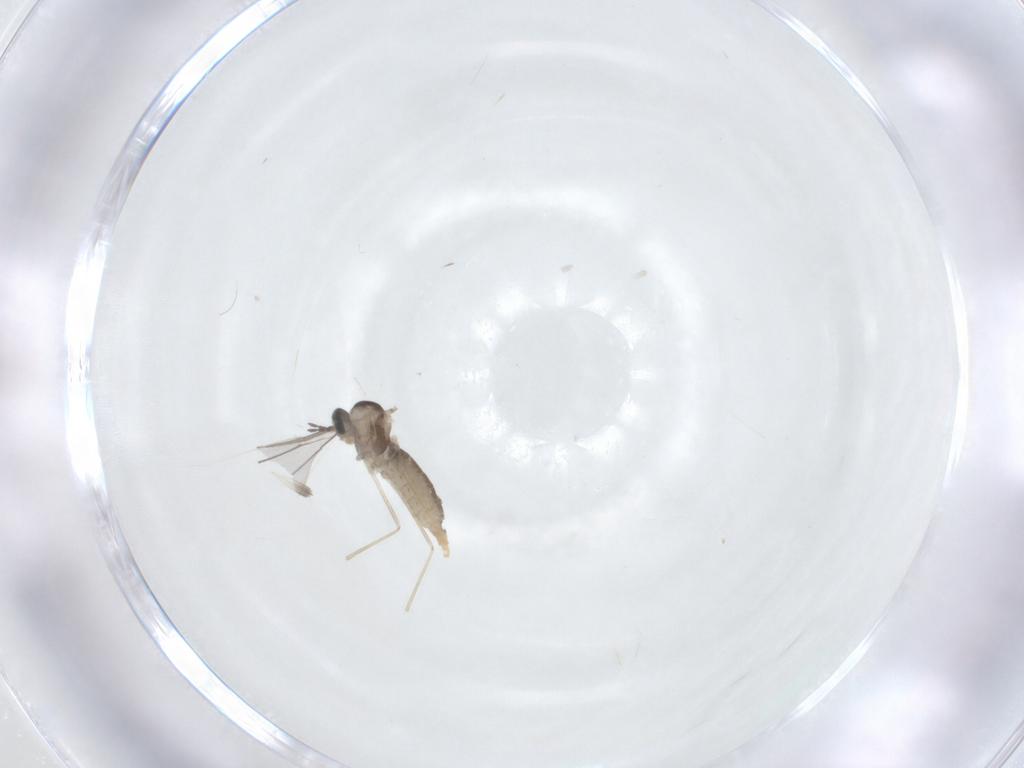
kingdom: Animalia
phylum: Arthropoda
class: Insecta
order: Diptera
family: Cecidomyiidae
